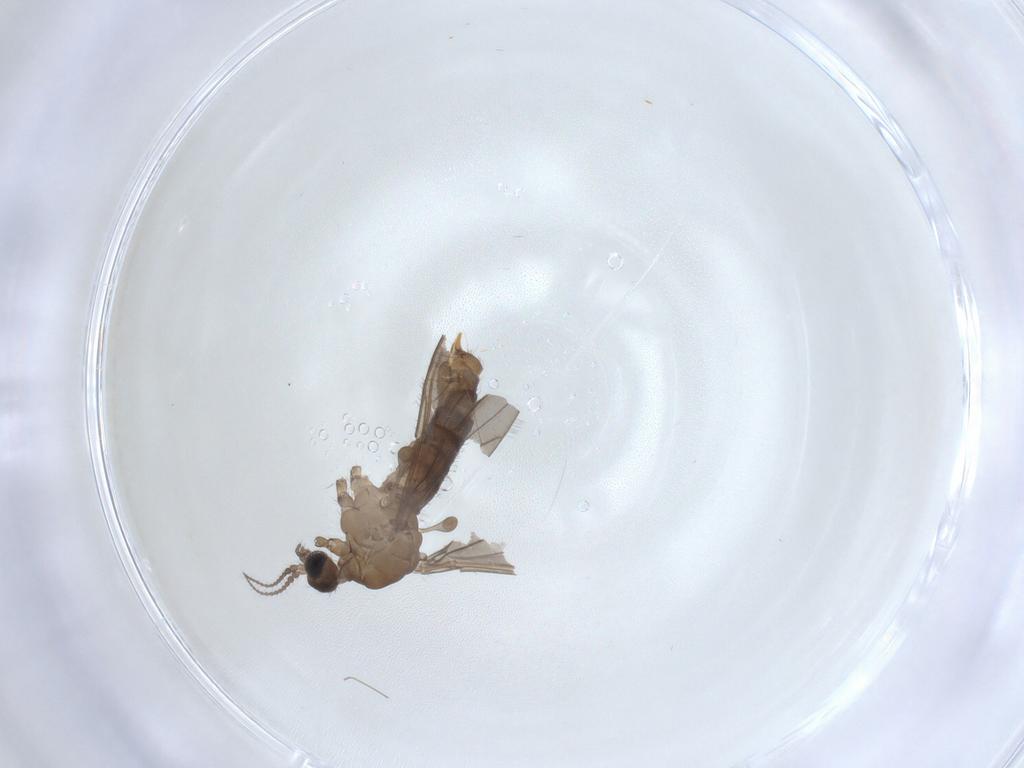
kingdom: Animalia
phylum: Arthropoda
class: Insecta
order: Diptera
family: Limoniidae
